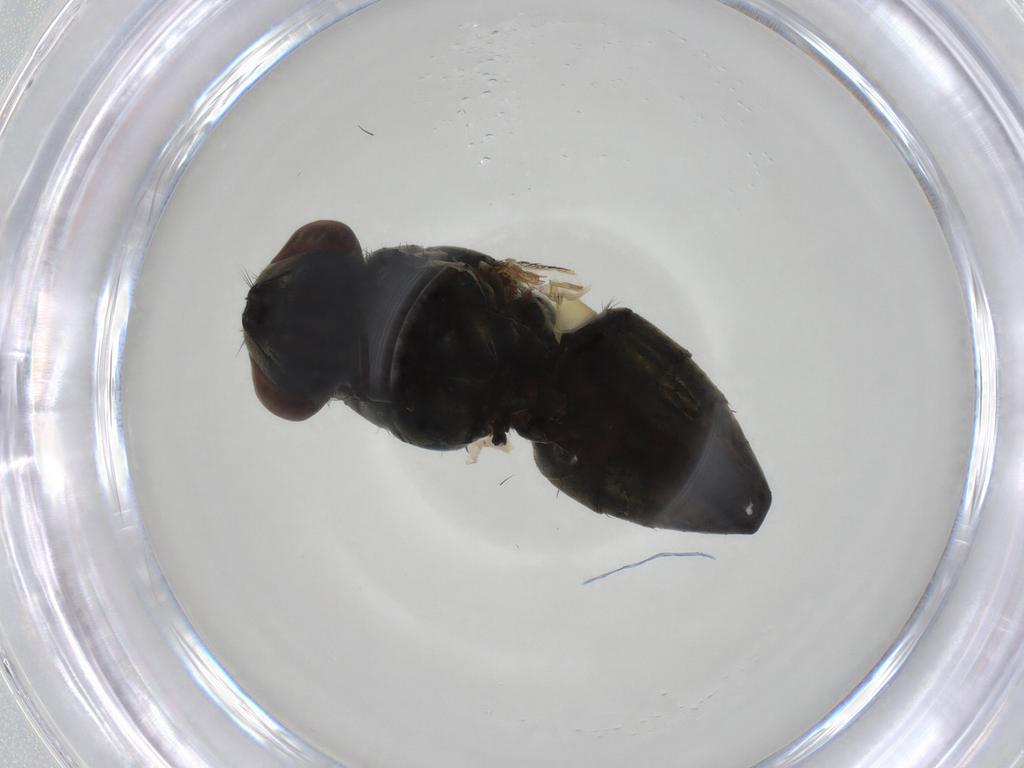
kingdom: Animalia
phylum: Arthropoda
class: Insecta
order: Diptera
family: Muscidae
